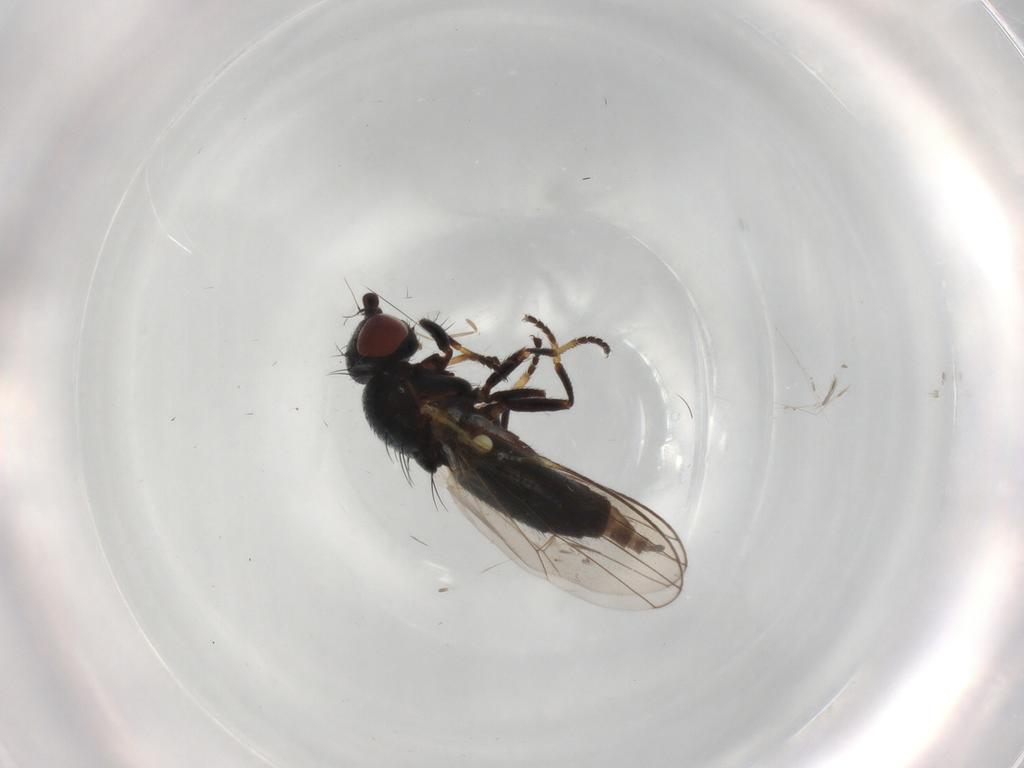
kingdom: Animalia
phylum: Arthropoda
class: Insecta
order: Diptera
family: Chamaemyiidae
